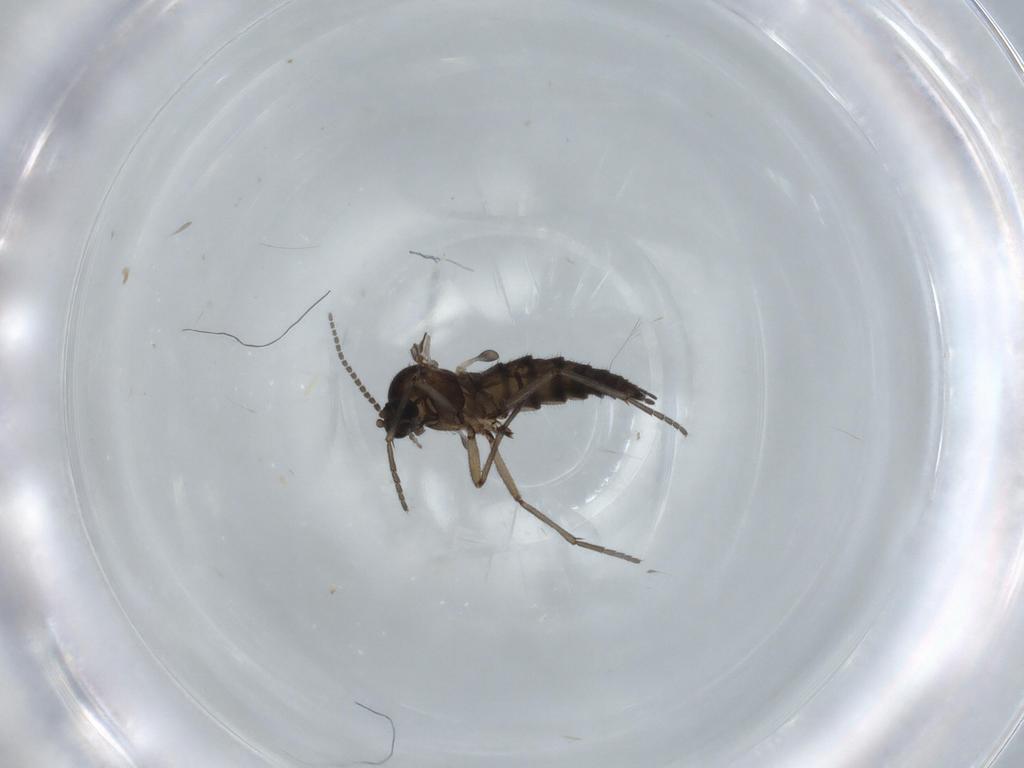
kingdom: Animalia
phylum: Arthropoda
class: Insecta
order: Diptera
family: Sciaridae
